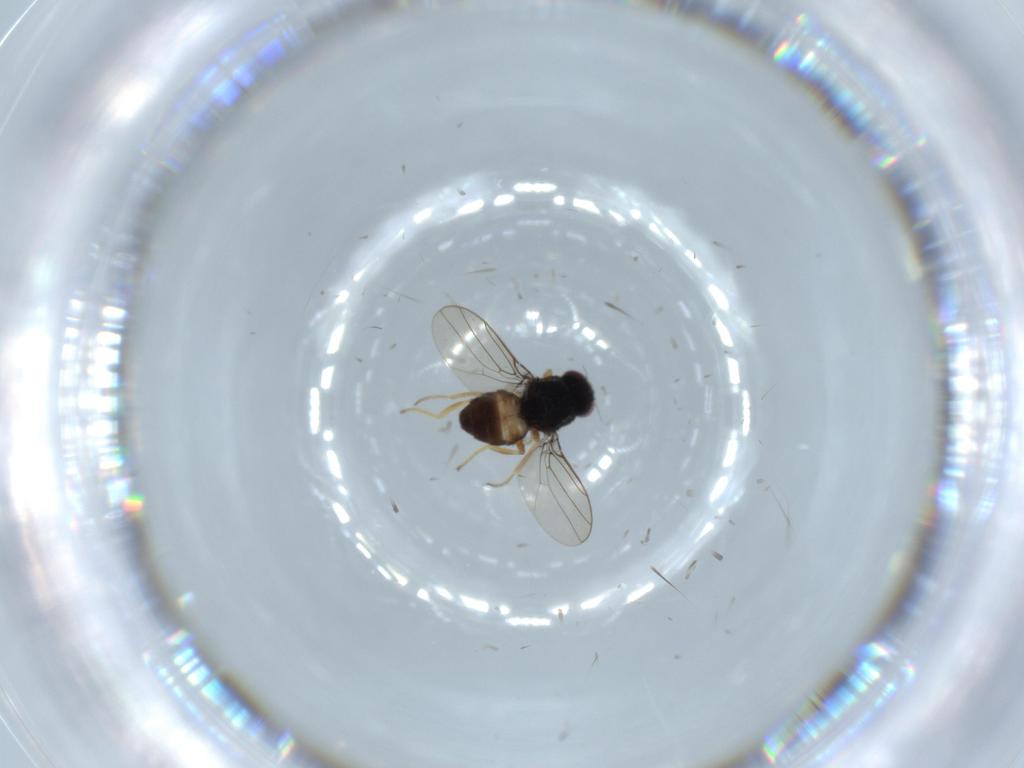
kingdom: Animalia
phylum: Arthropoda
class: Insecta
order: Diptera
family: Chloropidae
